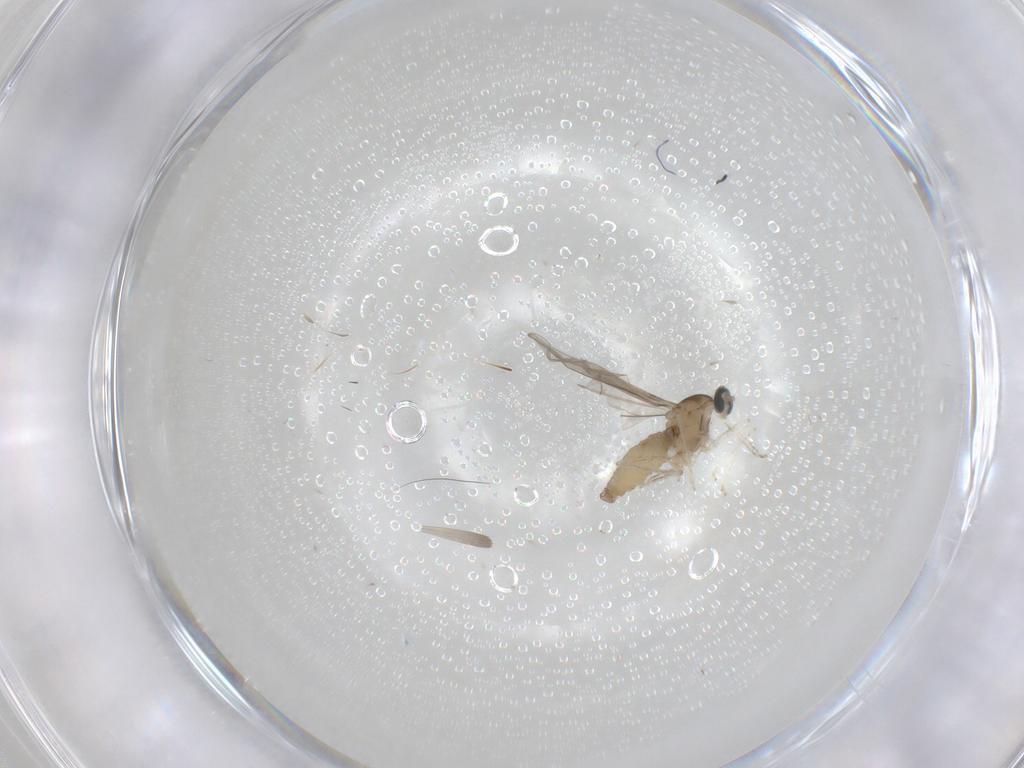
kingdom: Animalia
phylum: Arthropoda
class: Insecta
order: Diptera
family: Cecidomyiidae
